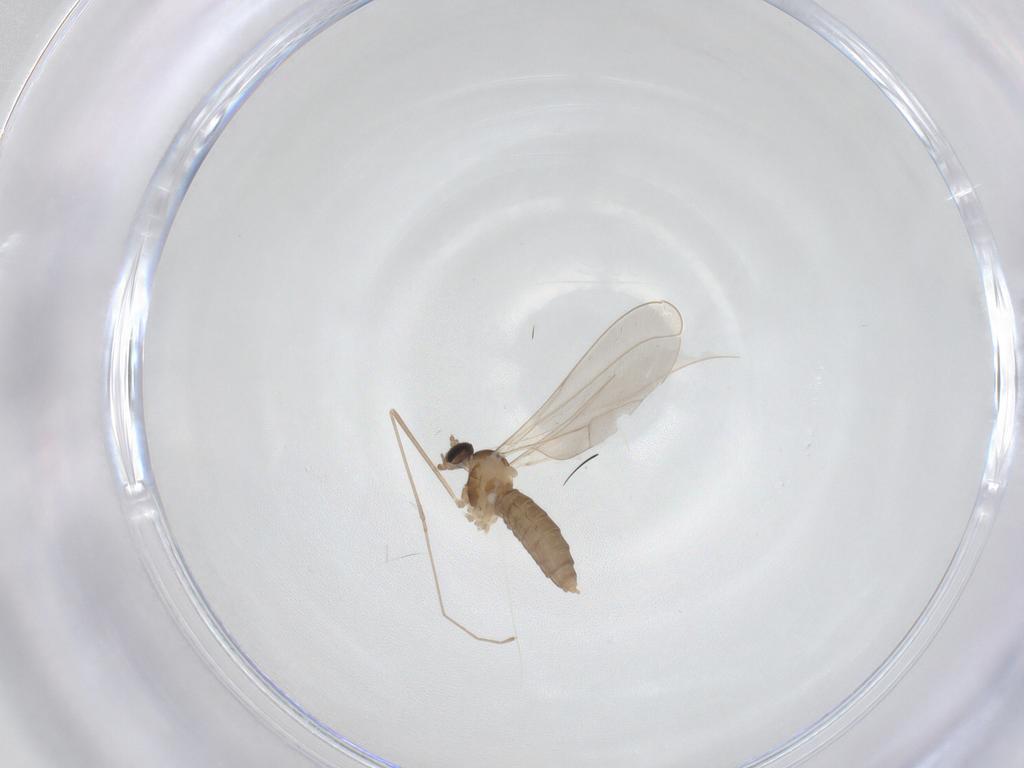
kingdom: Animalia
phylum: Arthropoda
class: Insecta
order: Diptera
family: Cecidomyiidae
